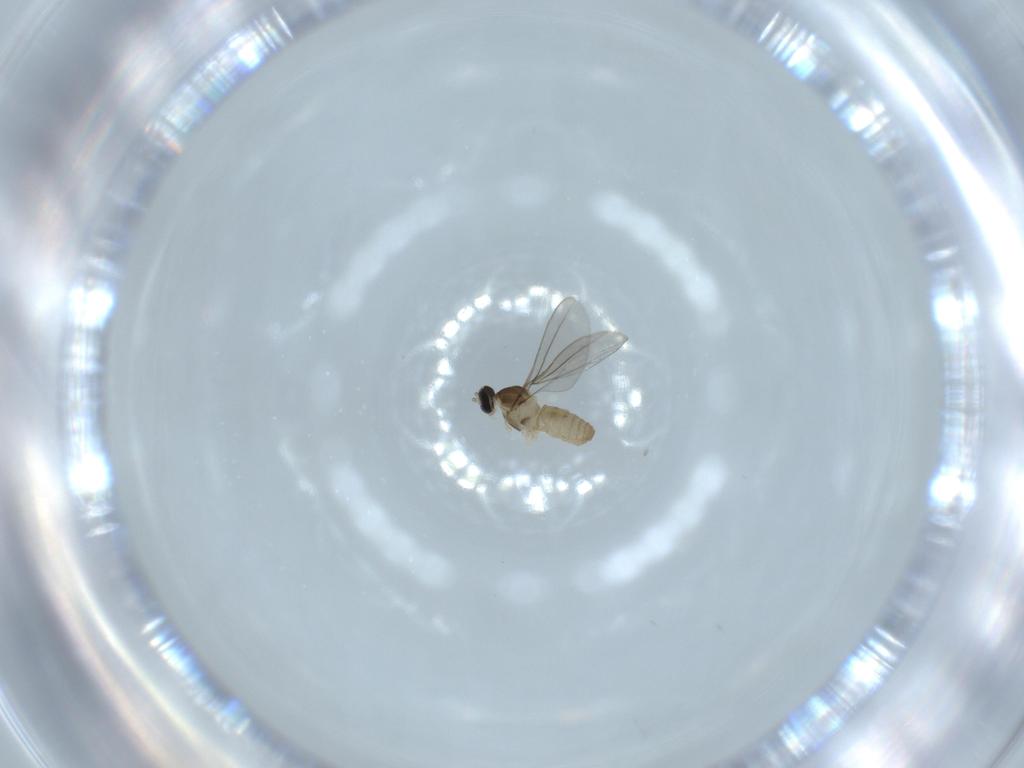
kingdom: Animalia
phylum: Arthropoda
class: Insecta
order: Diptera
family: Cecidomyiidae
